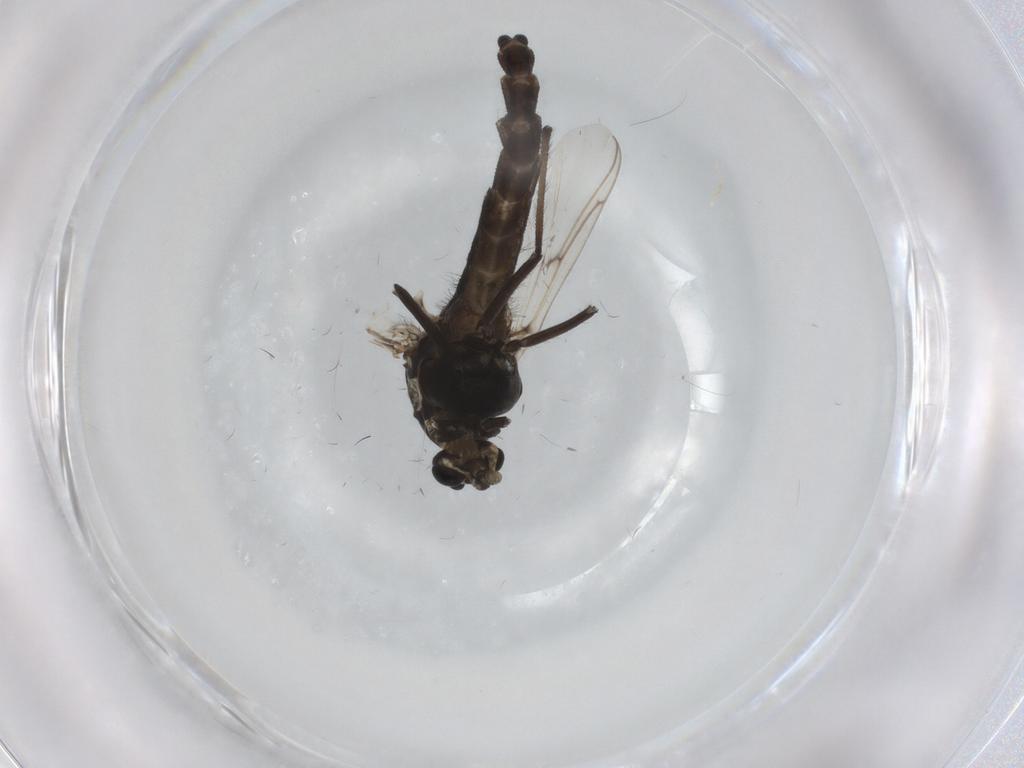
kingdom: Animalia
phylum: Arthropoda
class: Insecta
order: Diptera
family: Chironomidae
